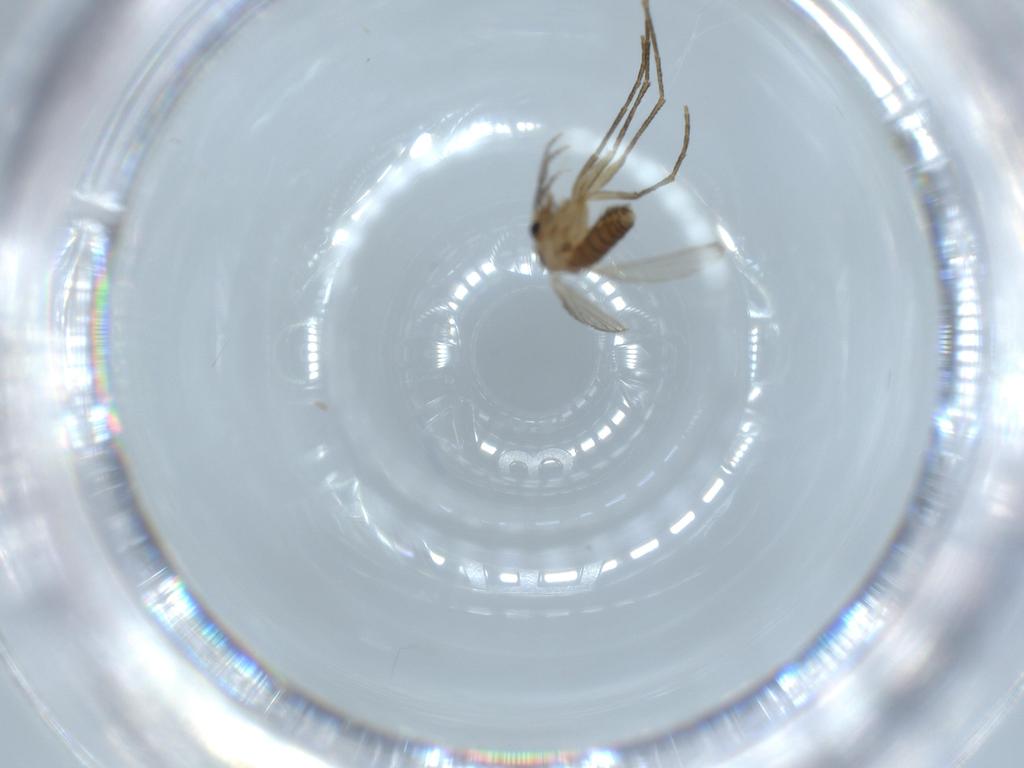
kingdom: Animalia
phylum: Arthropoda
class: Insecta
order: Diptera
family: Psychodidae
